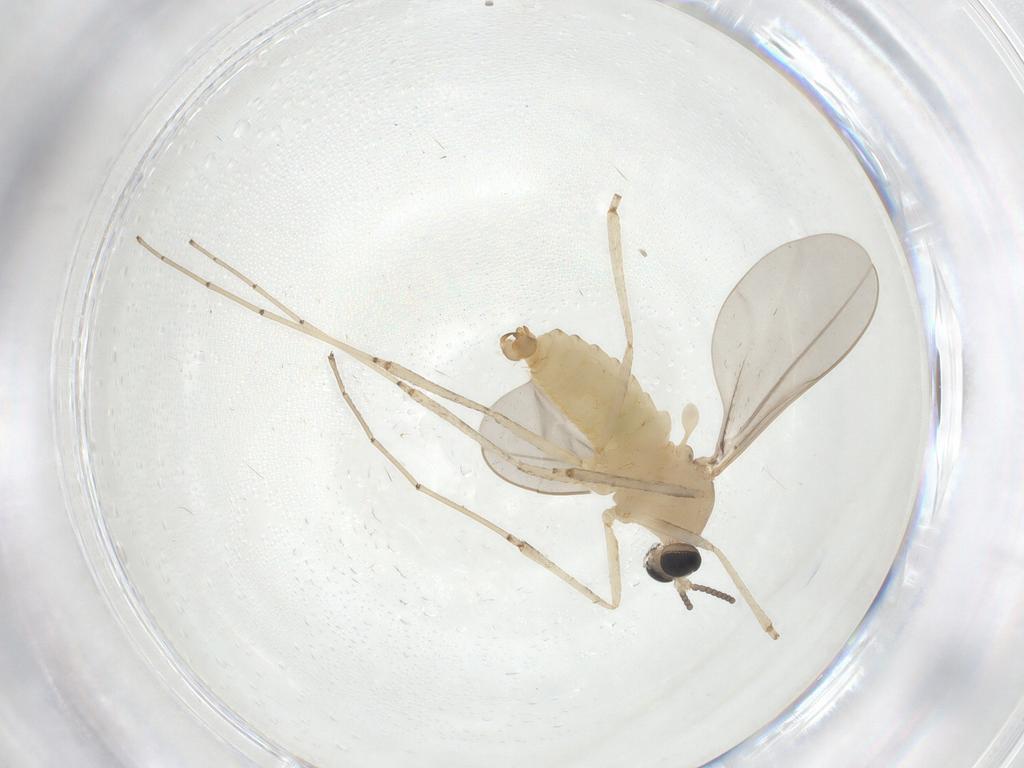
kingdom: Animalia
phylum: Arthropoda
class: Insecta
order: Diptera
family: Cecidomyiidae
